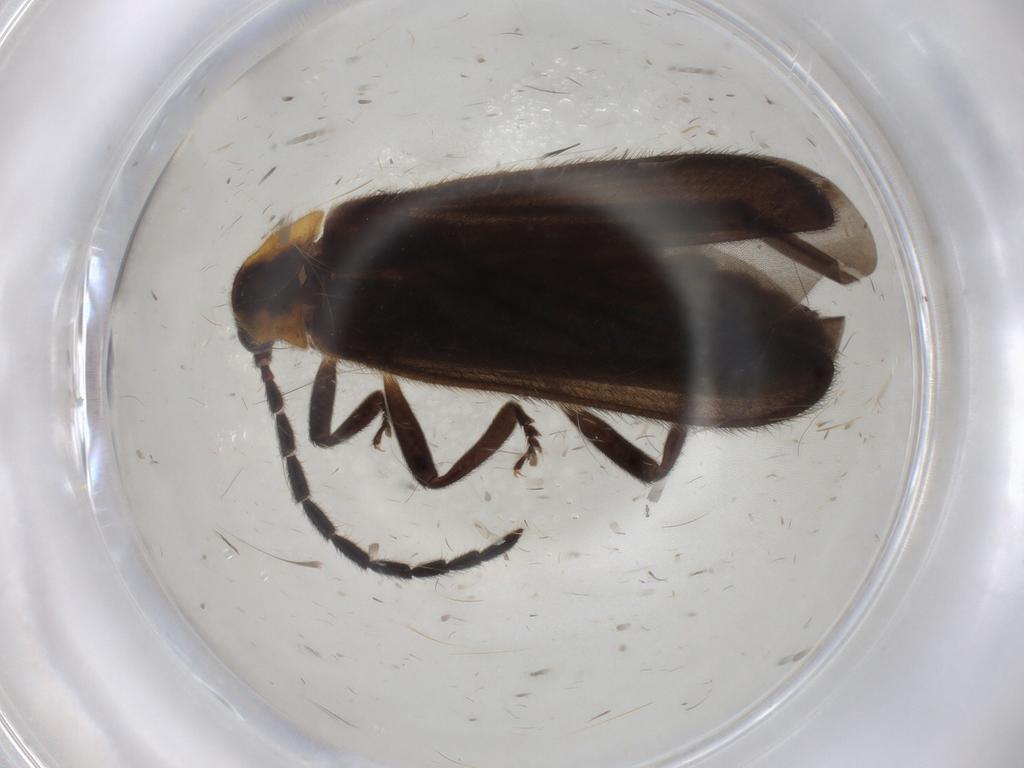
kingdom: Animalia
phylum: Arthropoda
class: Insecta
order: Coleoptera
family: Lycidae
